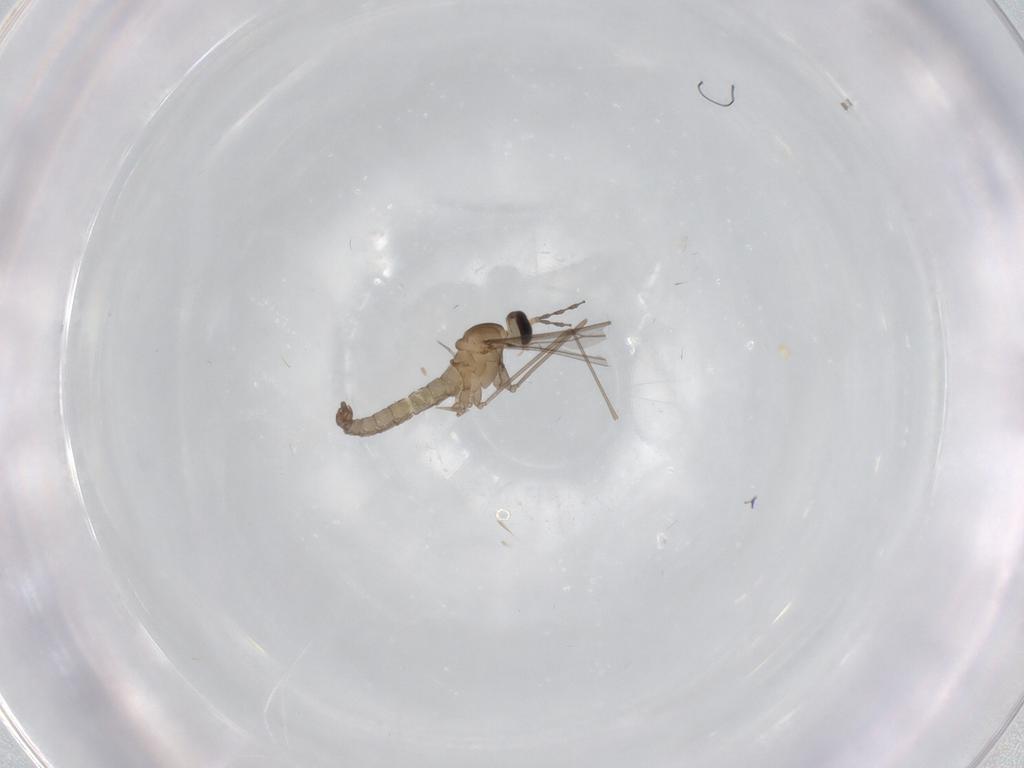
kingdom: Animalia
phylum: Arthropoda
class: Insecta
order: Diptera
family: Cecidomyiidae
